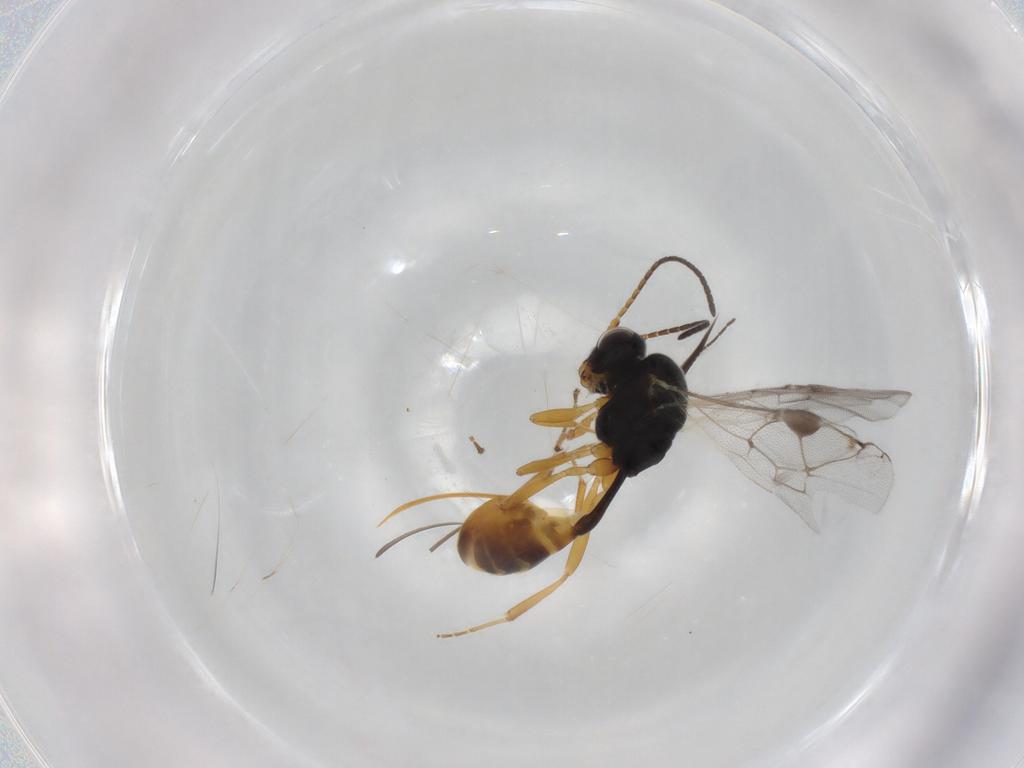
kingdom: Animalia
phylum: Arthropoda
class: Insecta
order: Hymenoptera
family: Ichneumonidae
